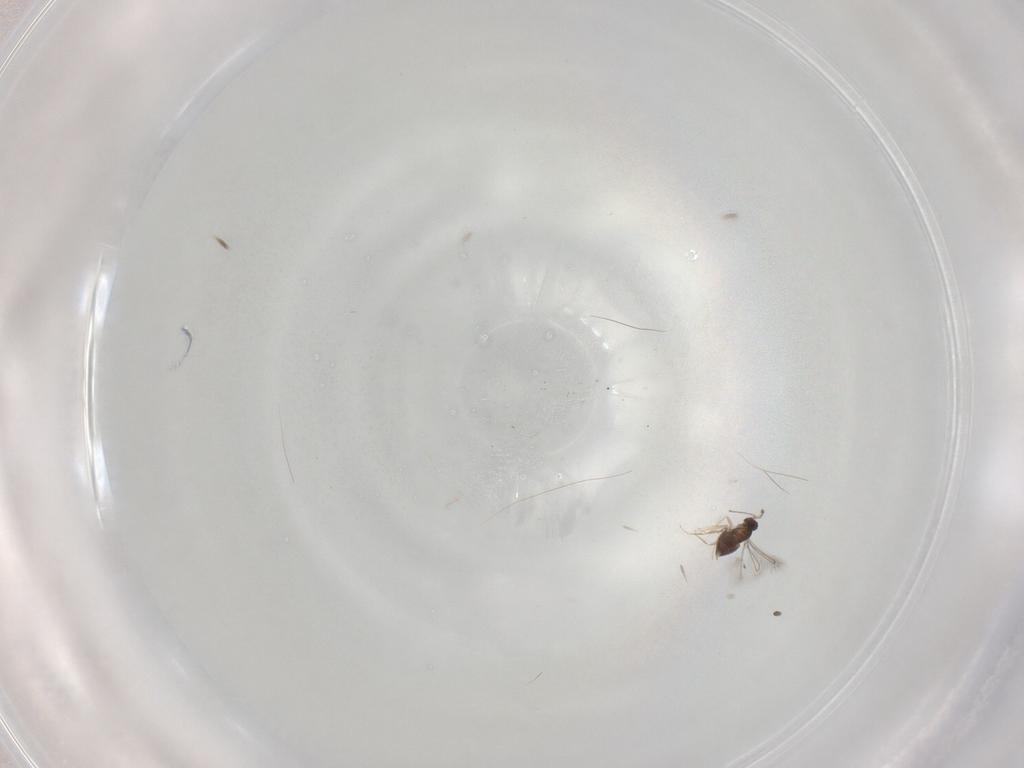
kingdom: Animalia
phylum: Arthropoda
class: Insecta
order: Hymenoptera
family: Mymaridae
